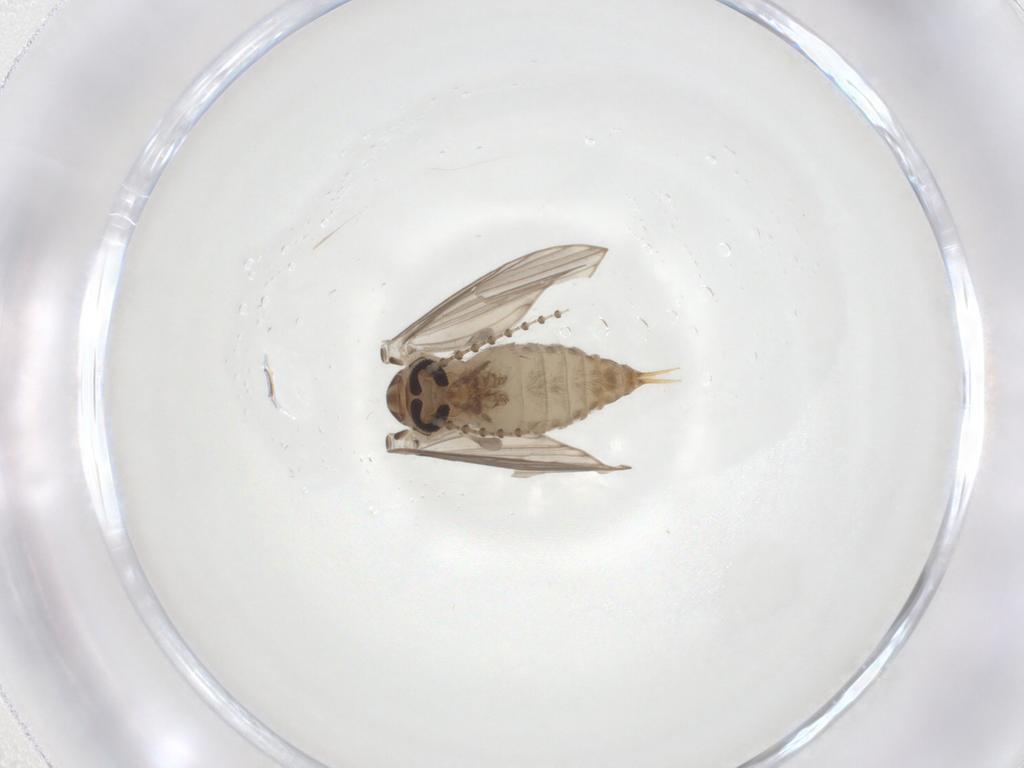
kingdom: Animalia
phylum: Arthropoda
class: Insecta
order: Diptera
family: Psychodidae
